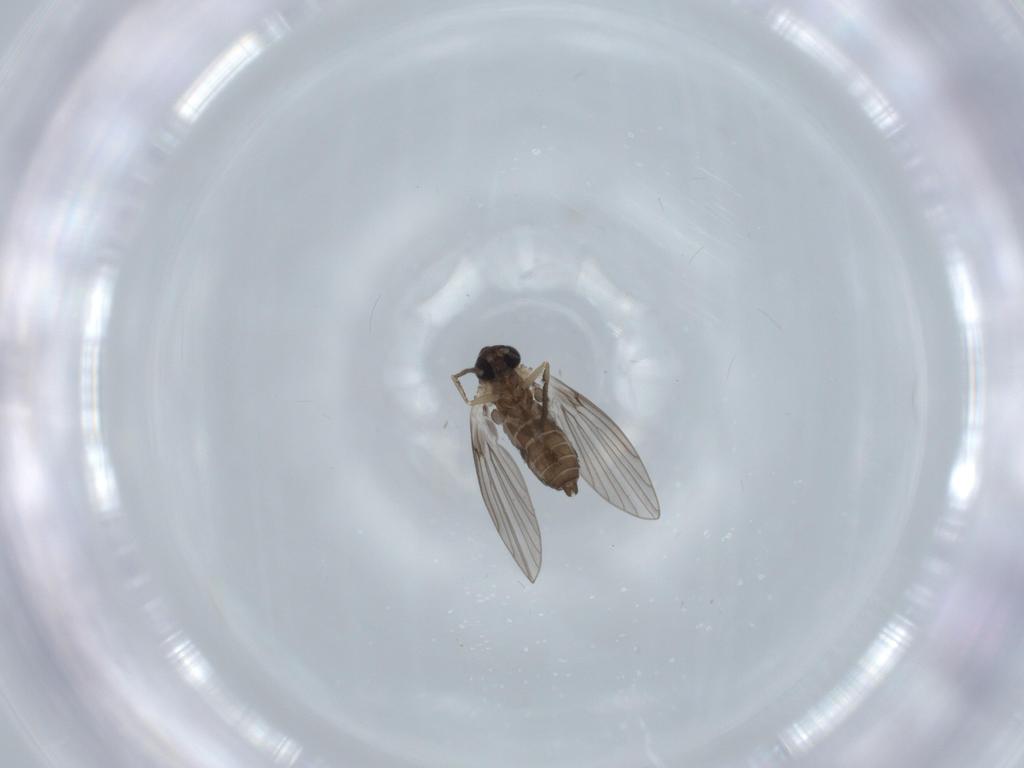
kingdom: Animalia
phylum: Arthropoda
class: Insecta
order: Diptera
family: Psychodidae
